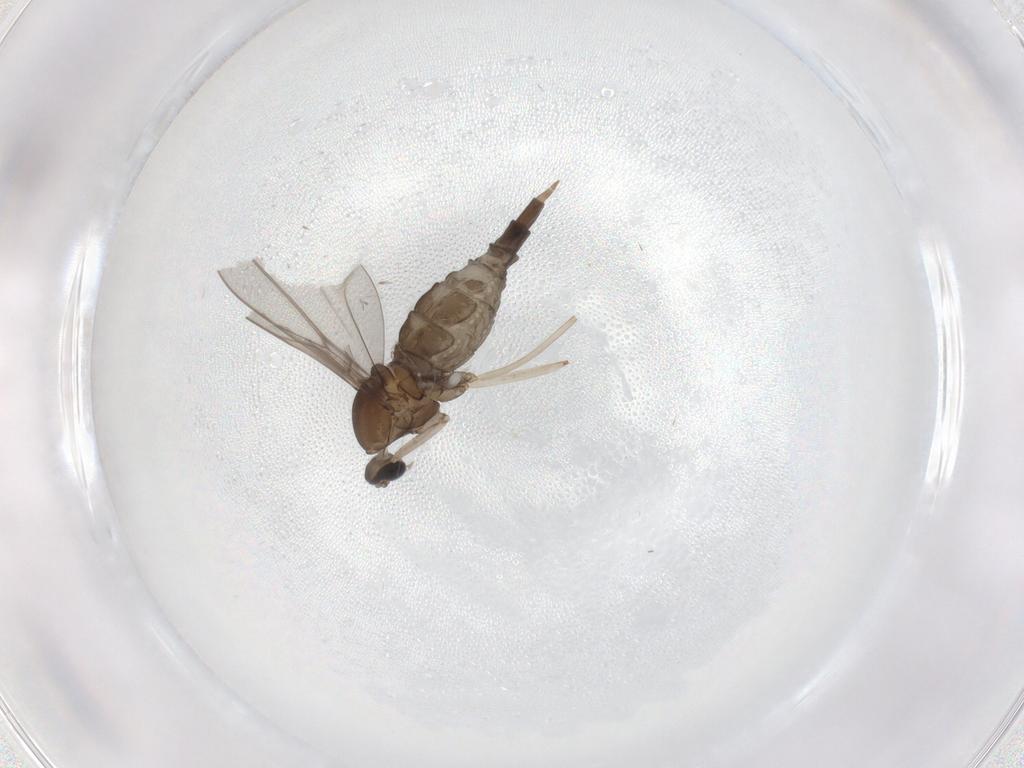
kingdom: Animalia
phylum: Arthropoda
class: Insecta
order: Diptera
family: Cecidomyiidae
